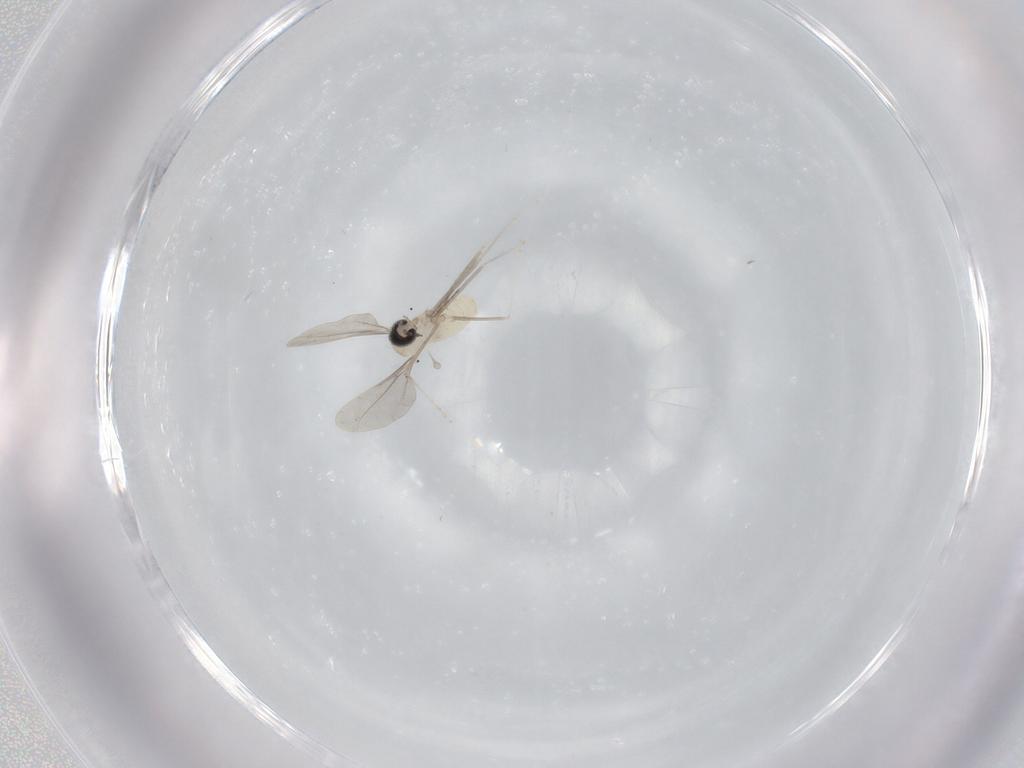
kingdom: Animalia
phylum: Arthropoda
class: Insecta
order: Diptera
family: Cecidomyiidae
